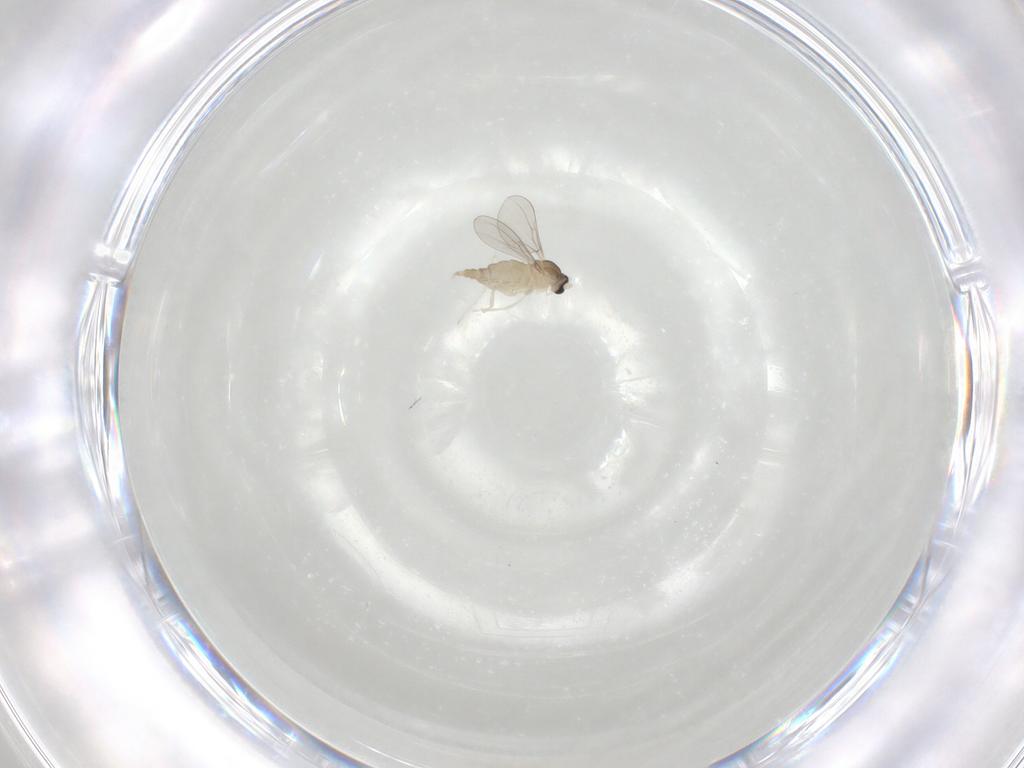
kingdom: Animalia
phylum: Arthropoda
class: Insecta
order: Diptera
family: Cecidomyiidae
